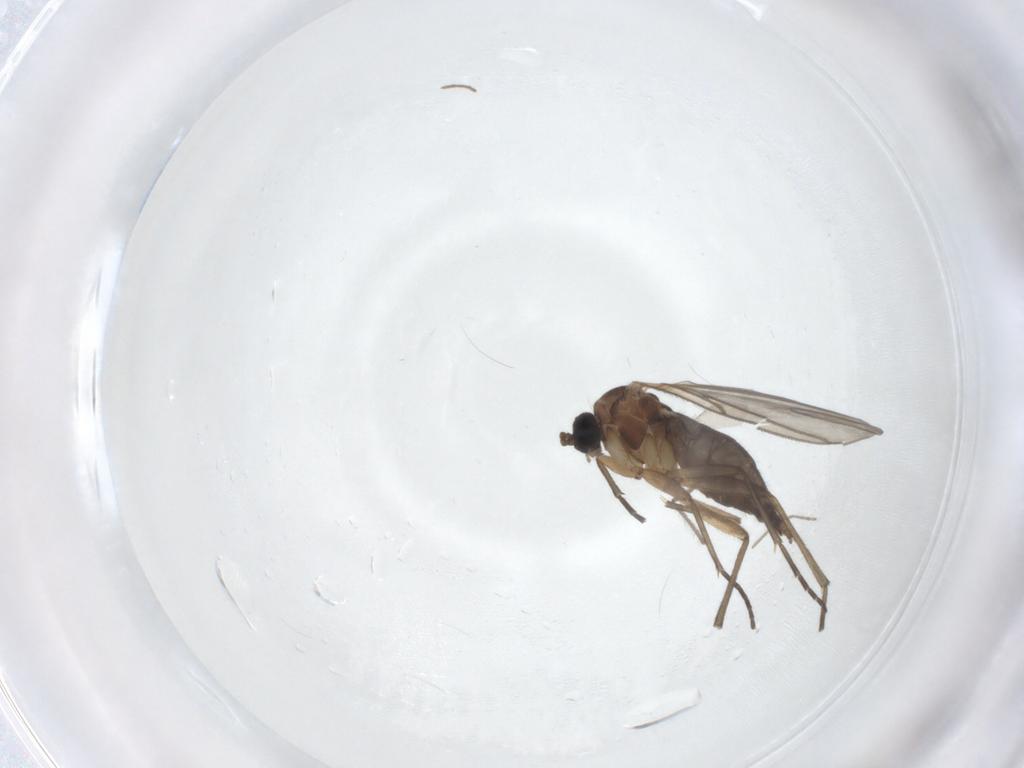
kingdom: Animalia
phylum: Arthropoda
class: Insecta
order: Diptera
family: Sciaridae
